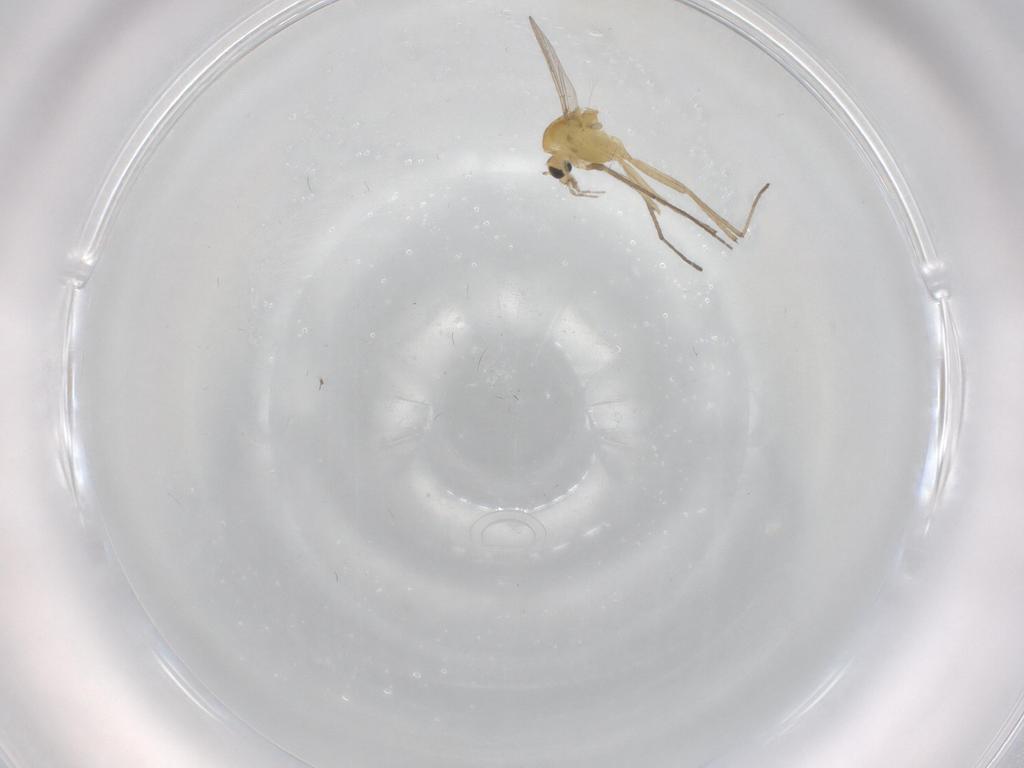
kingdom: Animalia
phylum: Arthropoda
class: Insecta
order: Diptera
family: Chironomidae
